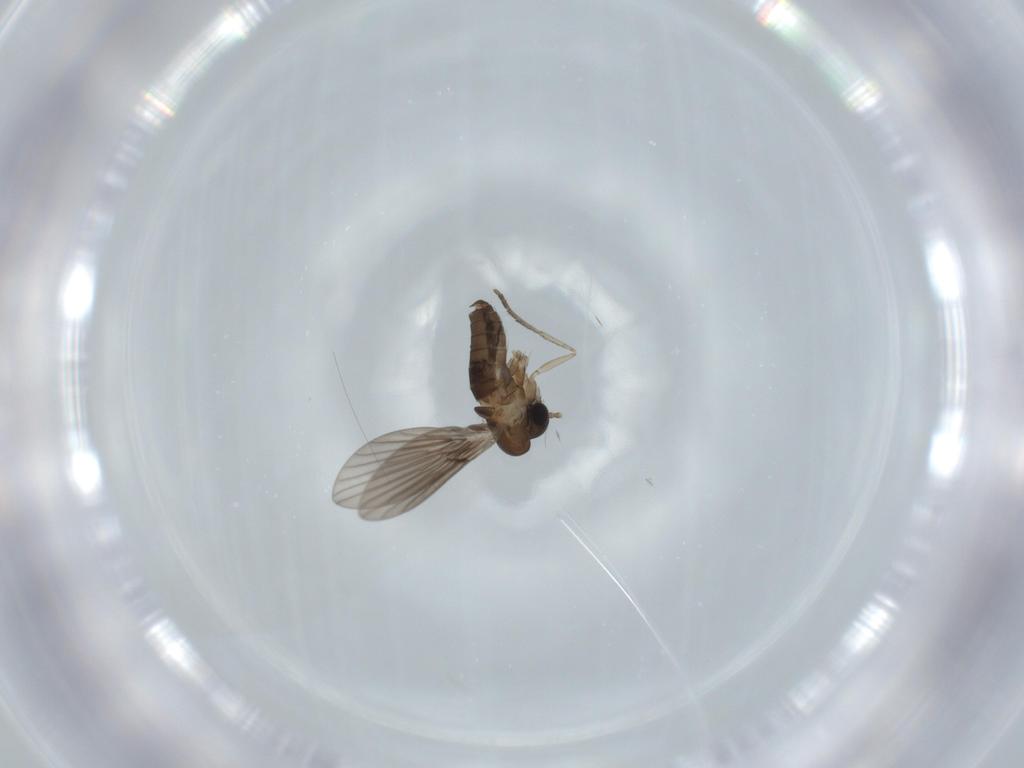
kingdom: Animalia
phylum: Arthropoda
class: Insecta
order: Diptera
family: Psychodidae
